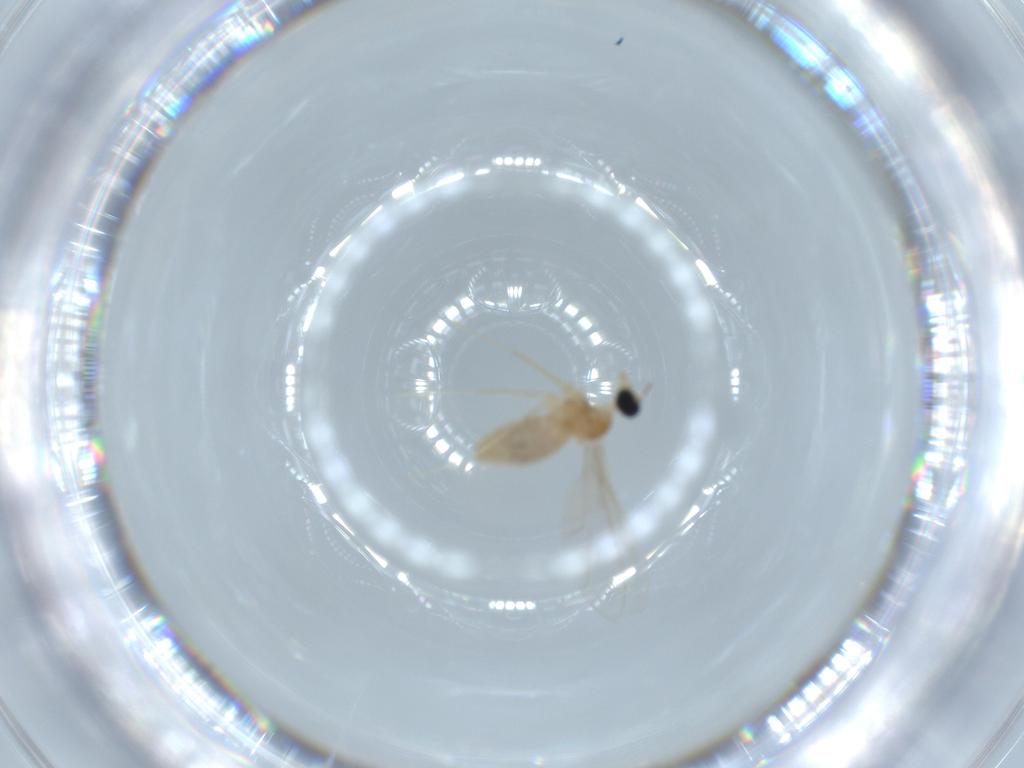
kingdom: Animalia
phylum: Arthropoda
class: Insecta
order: Diptera
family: Cecidomyiidae
